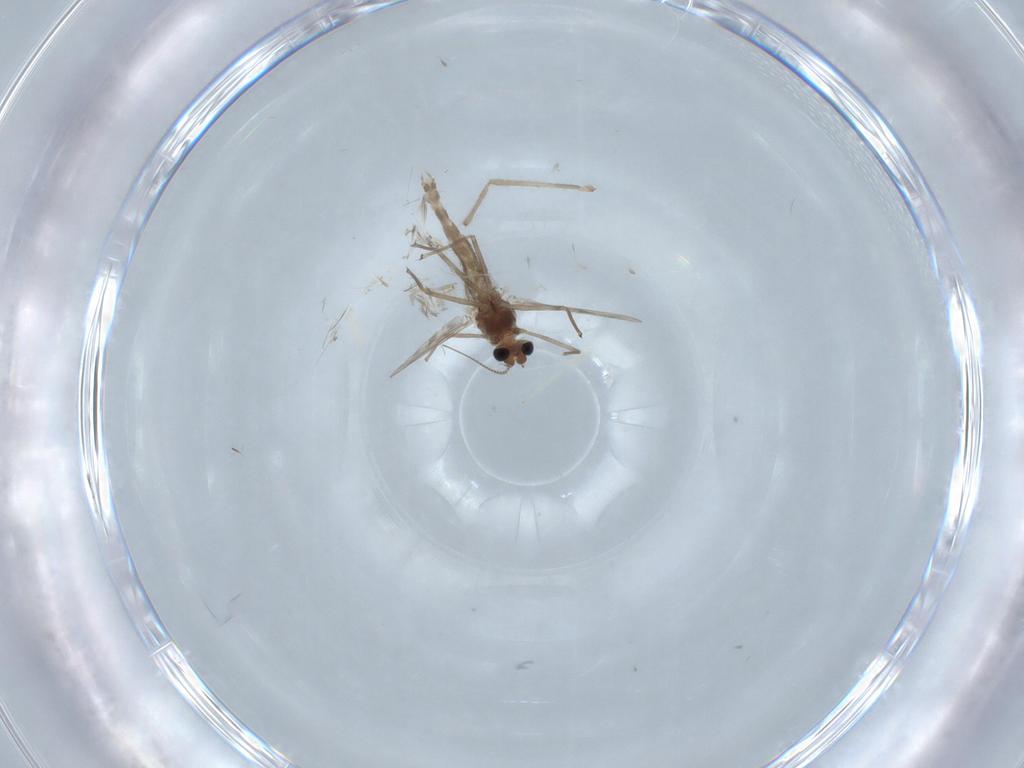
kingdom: Animalia
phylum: Arthropoda
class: Insecta
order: Diptera
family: Chironomidae
